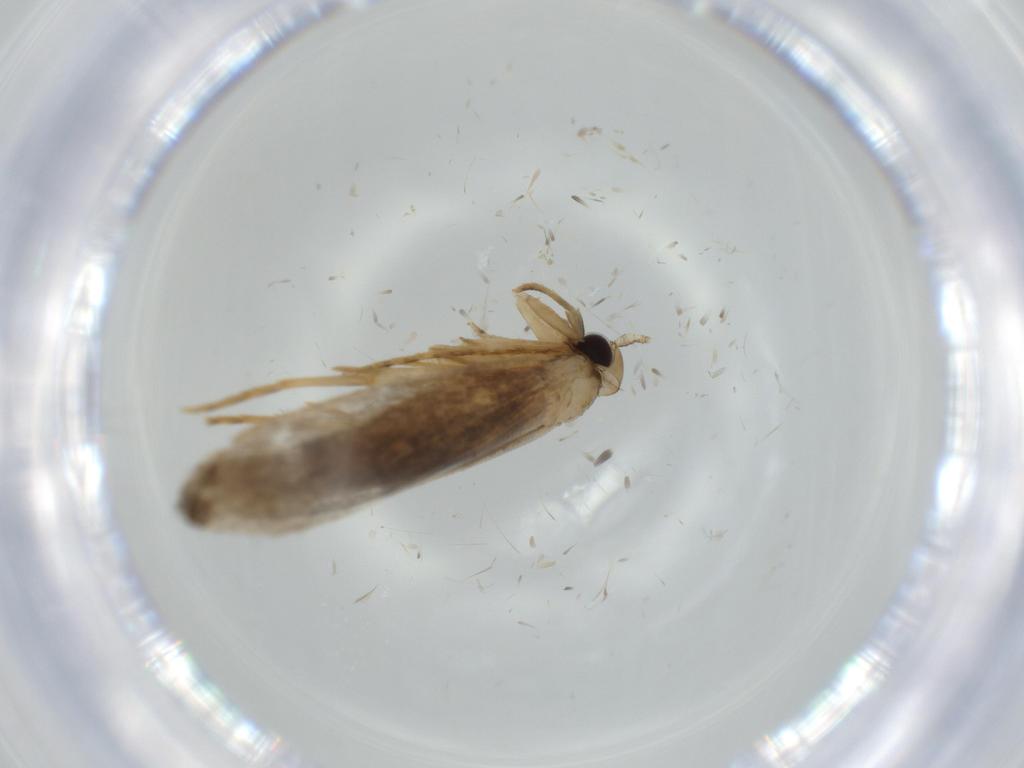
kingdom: Animalia
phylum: Arthropoda
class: Insecta
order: Lepidoptera
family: Tineidae
